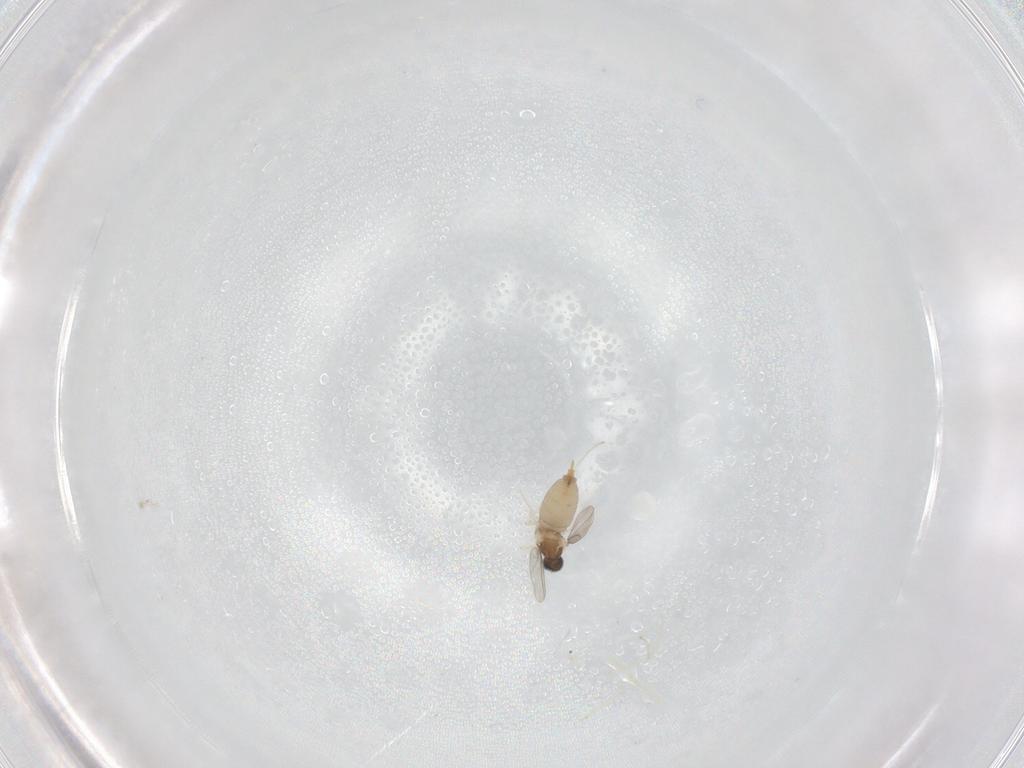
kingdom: Animalia
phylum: Arthropoda
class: Insecta
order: Diptera
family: Cecidomyiidae
